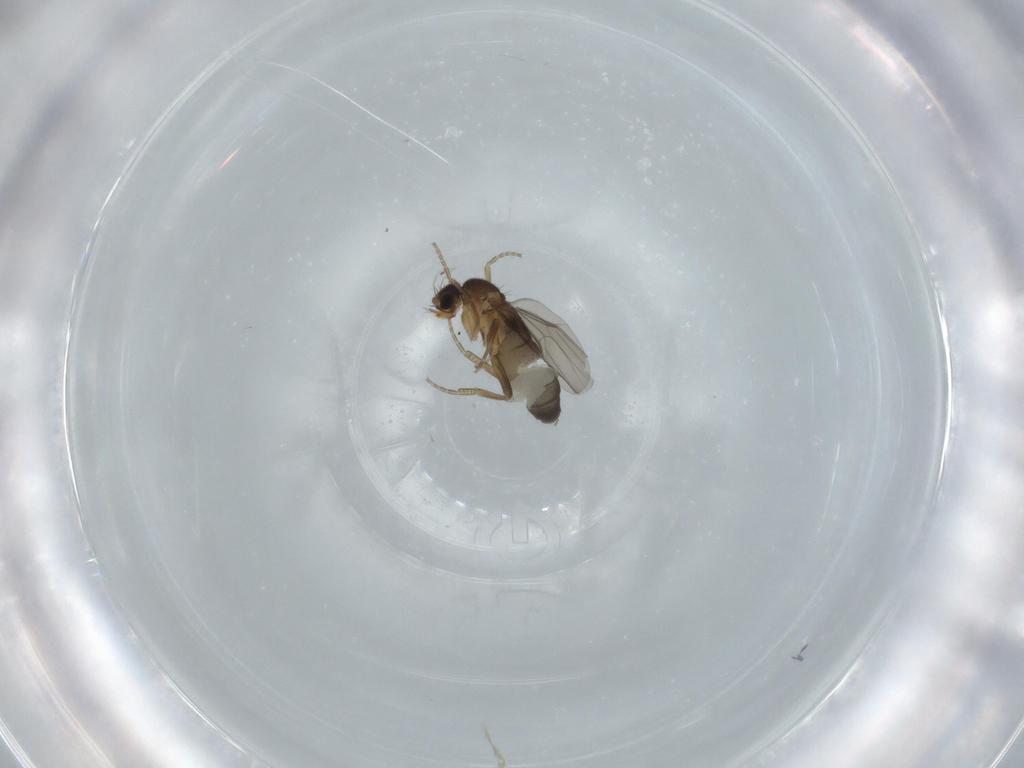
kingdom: Animalia
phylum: Arthropoda
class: Insecta
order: Diptera
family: Phoridae
